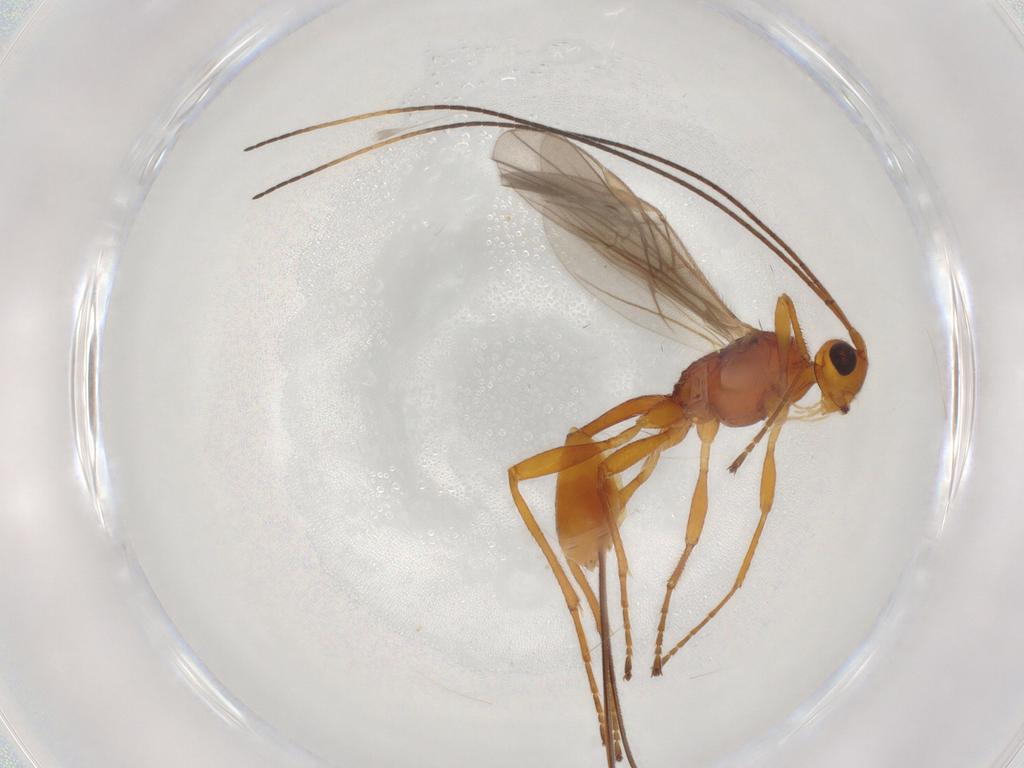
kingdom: Animalia
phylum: Arthropoda
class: Insecta
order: Hymenoptera
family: Braconidae
